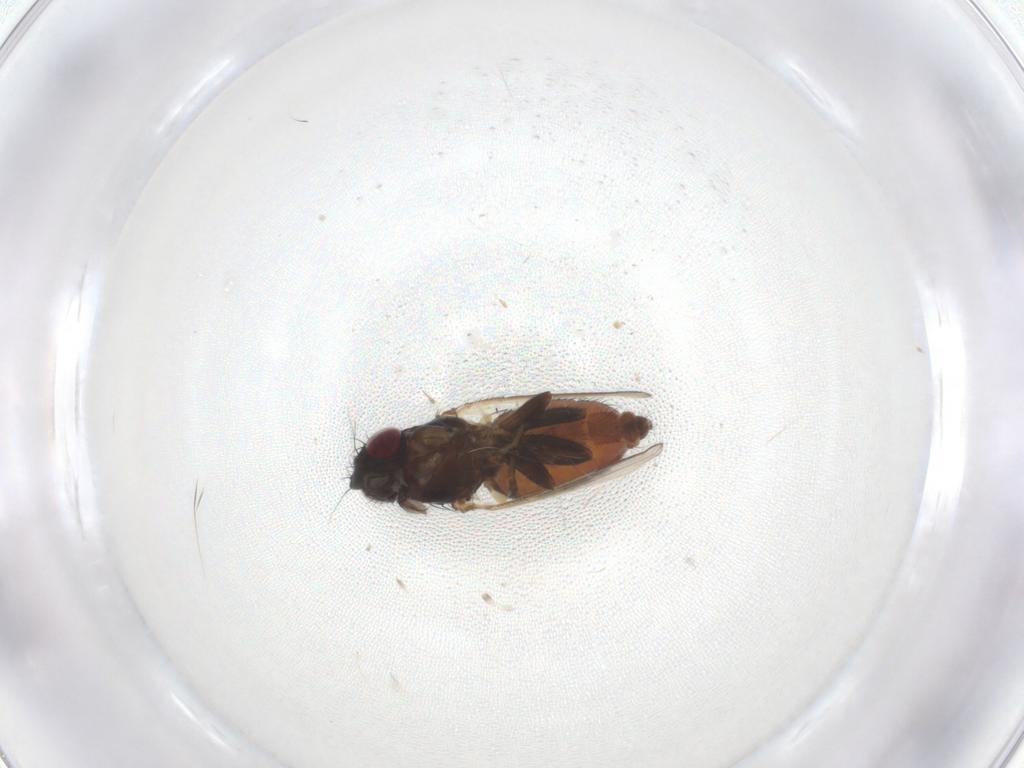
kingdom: Animalia
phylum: Arthropoda
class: Insecta
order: Diptera
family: Milichiidae
